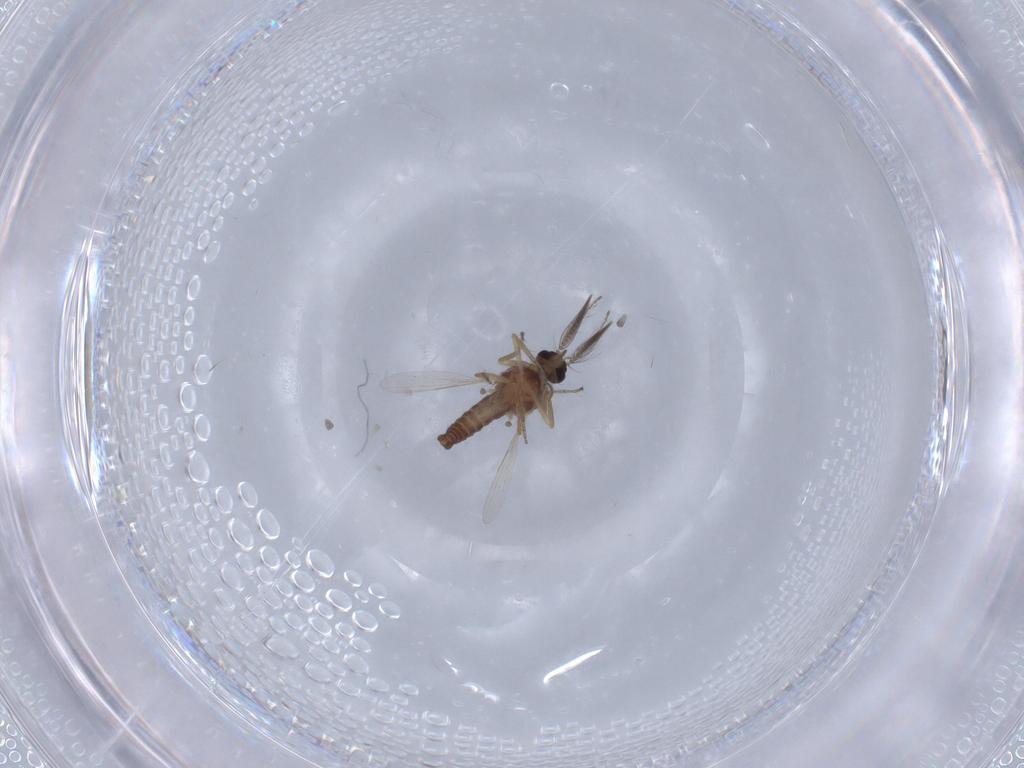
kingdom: Animalia
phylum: Arthropoda
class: Insecta
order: Diptera
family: Ceratopogonidae
